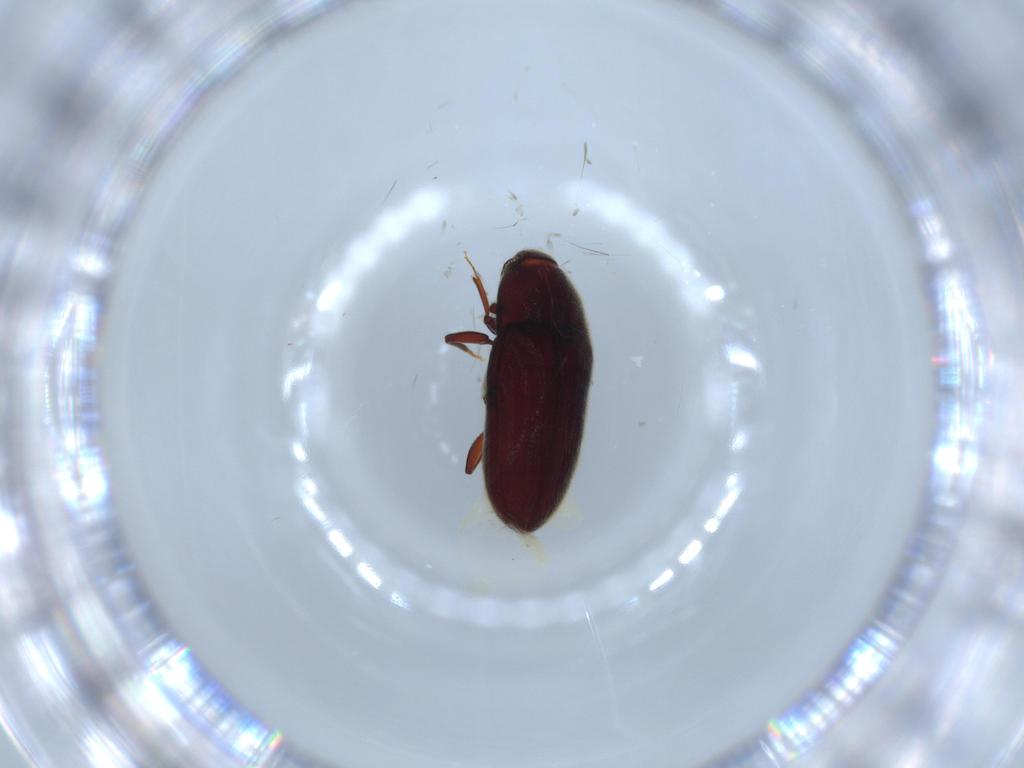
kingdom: Animalia
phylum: Arthropoda
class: Insecta
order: Coleoptera
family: Throscidae
